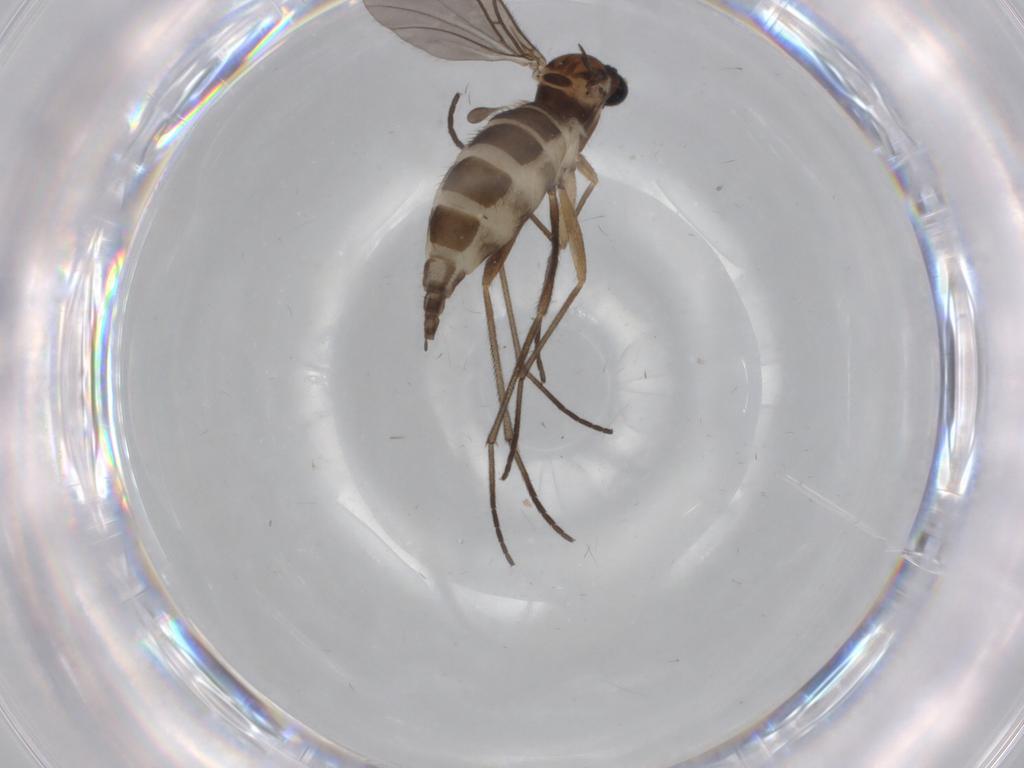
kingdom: Animalia
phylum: Arthropoda
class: Insecta
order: Diptera
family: Sciaridae
